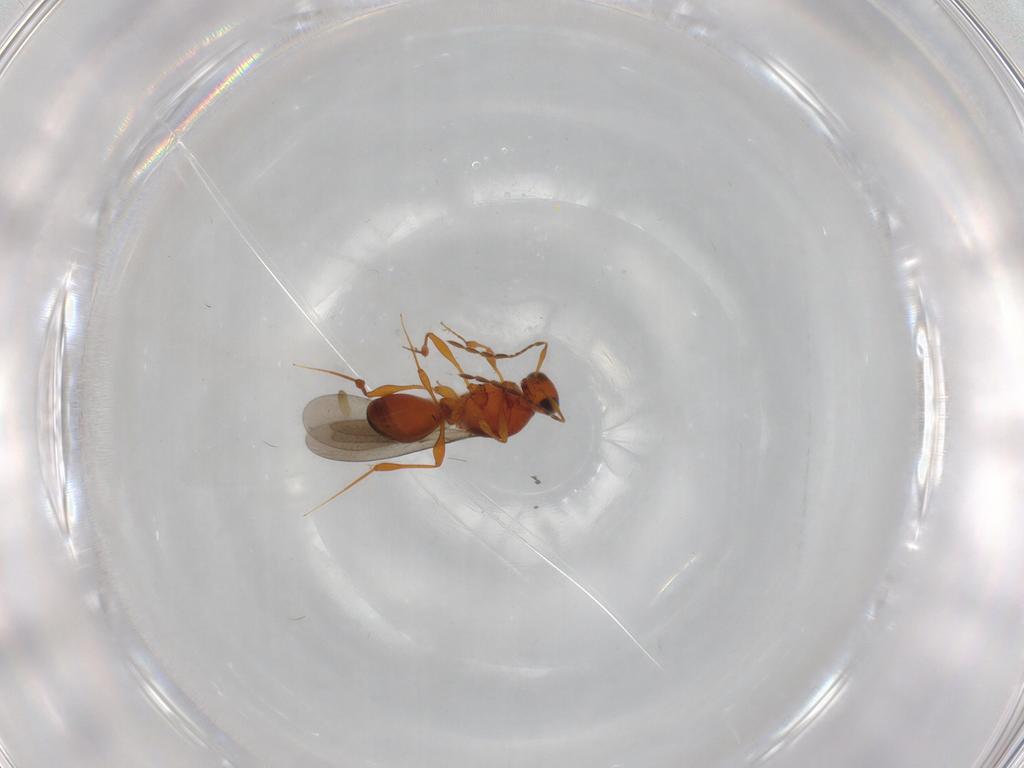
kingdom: Animalia
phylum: Arthropoda
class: Insecta
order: Hymenoptera
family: Platygastridae
